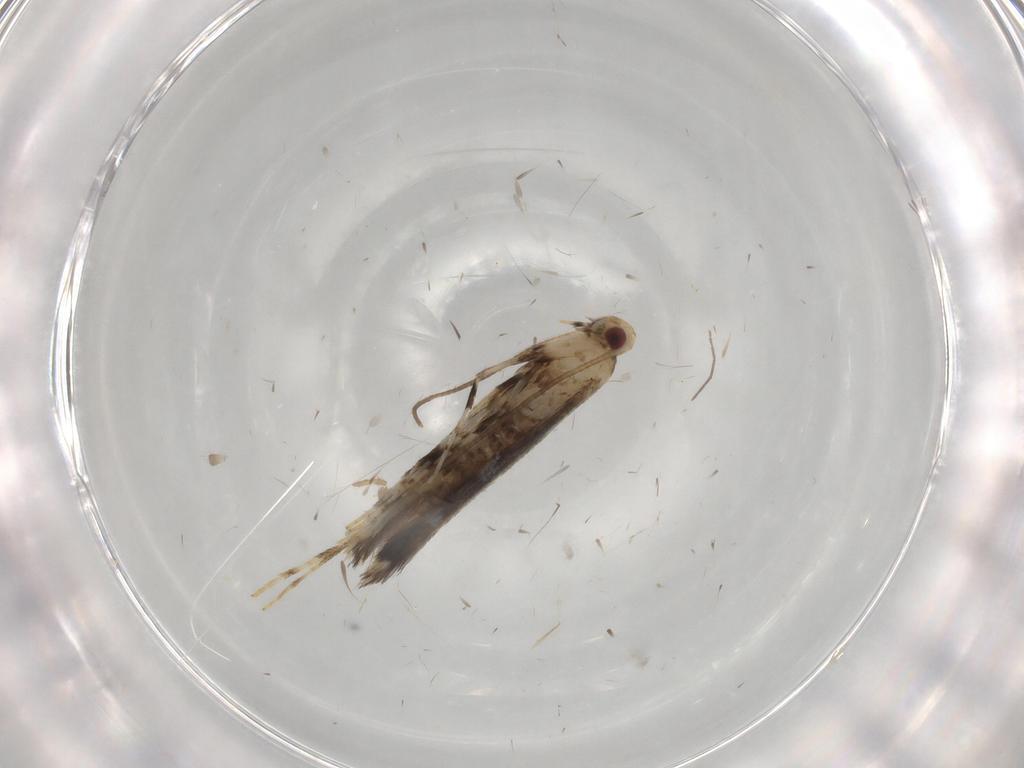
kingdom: Animalia
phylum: Arthropoda
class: Insecta
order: Lepidoptera
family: Gracillariidae
